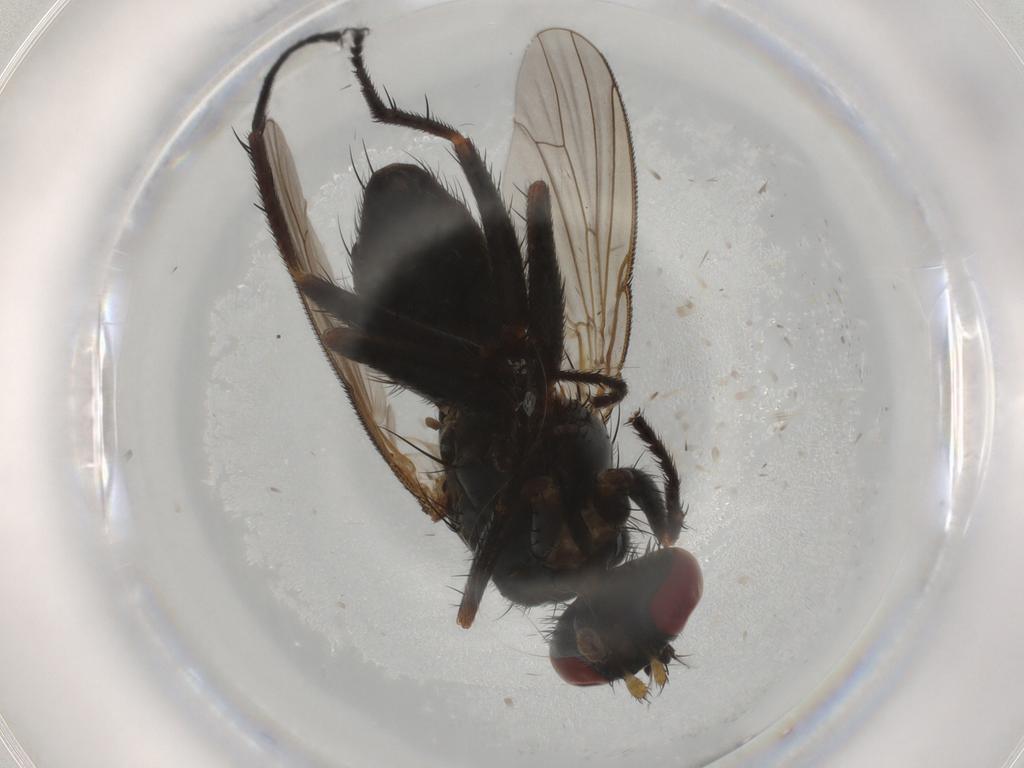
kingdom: Animalia
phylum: Arthropoda
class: Insecta
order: Diptera
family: Muscidae
